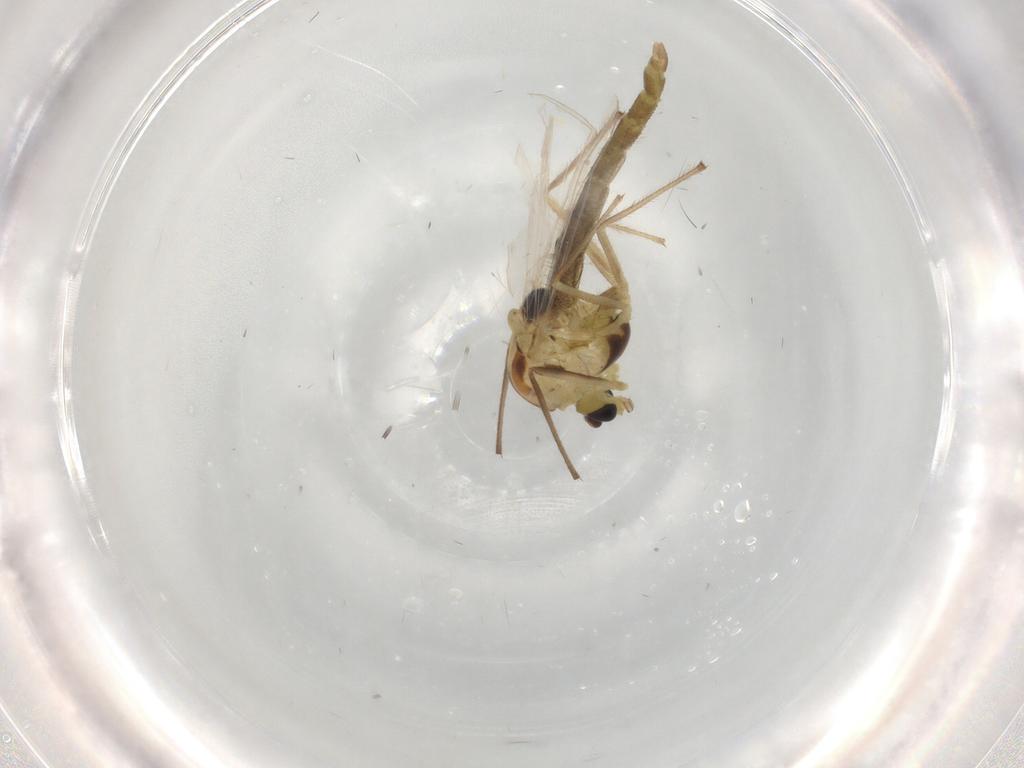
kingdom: Animalia
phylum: Arthropoda
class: Insecta
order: Diptera
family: Chironomidae
